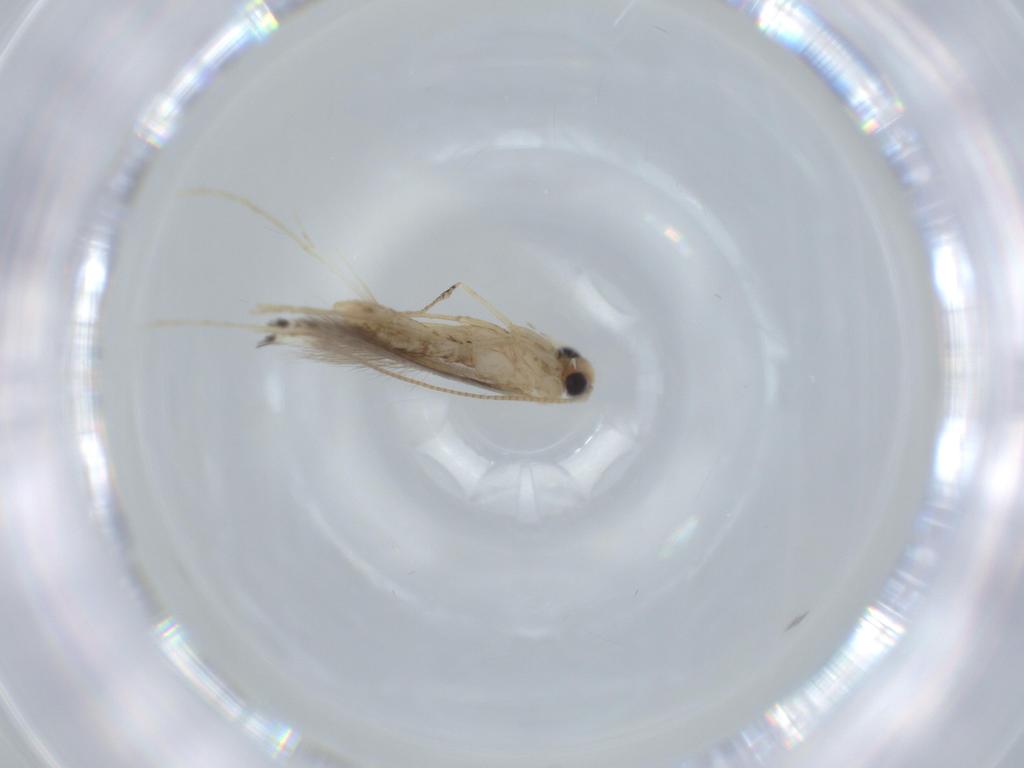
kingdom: Animalia
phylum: Arthropoda
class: Insecta
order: Lepidoptera
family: Gracillariidae
